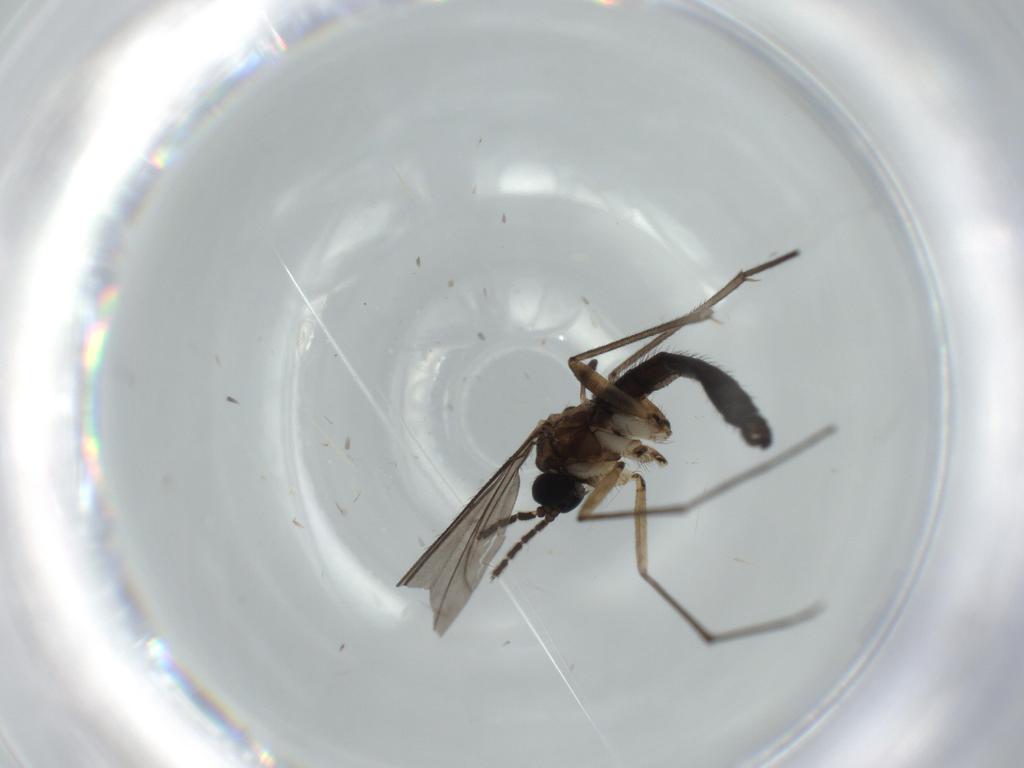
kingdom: Animalia
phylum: Arthropoda
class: Insecta
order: Diptera
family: Sciaridae
